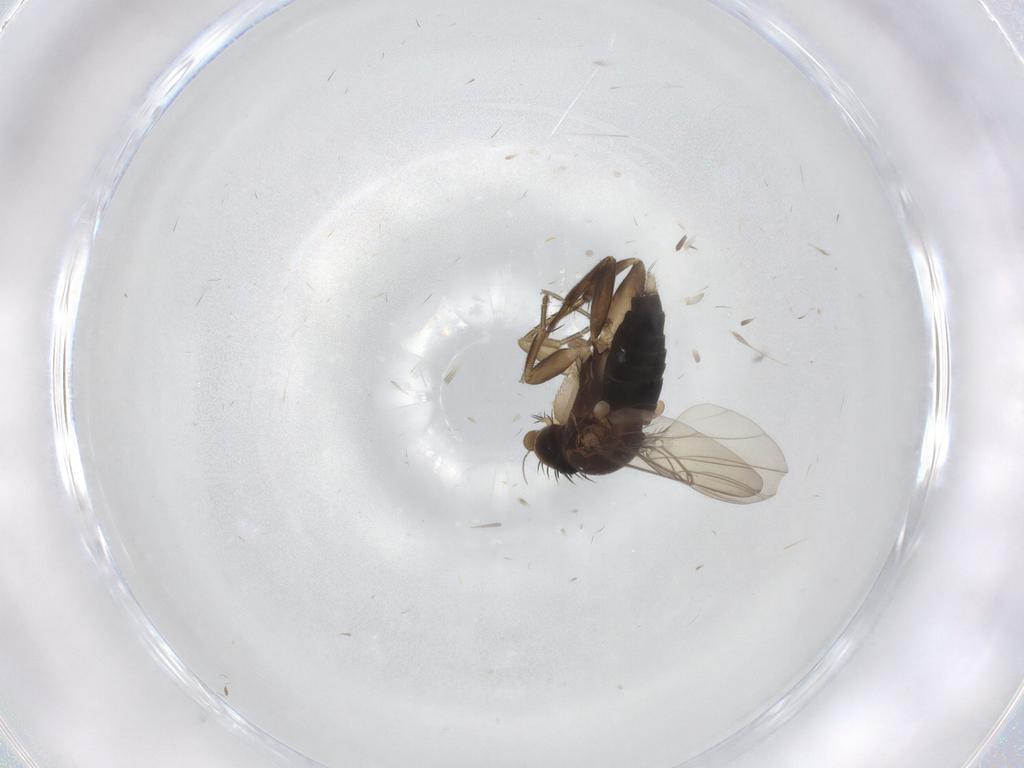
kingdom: Animalia
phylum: Arthropoda
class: Insecta
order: Diptera
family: Phoridae
